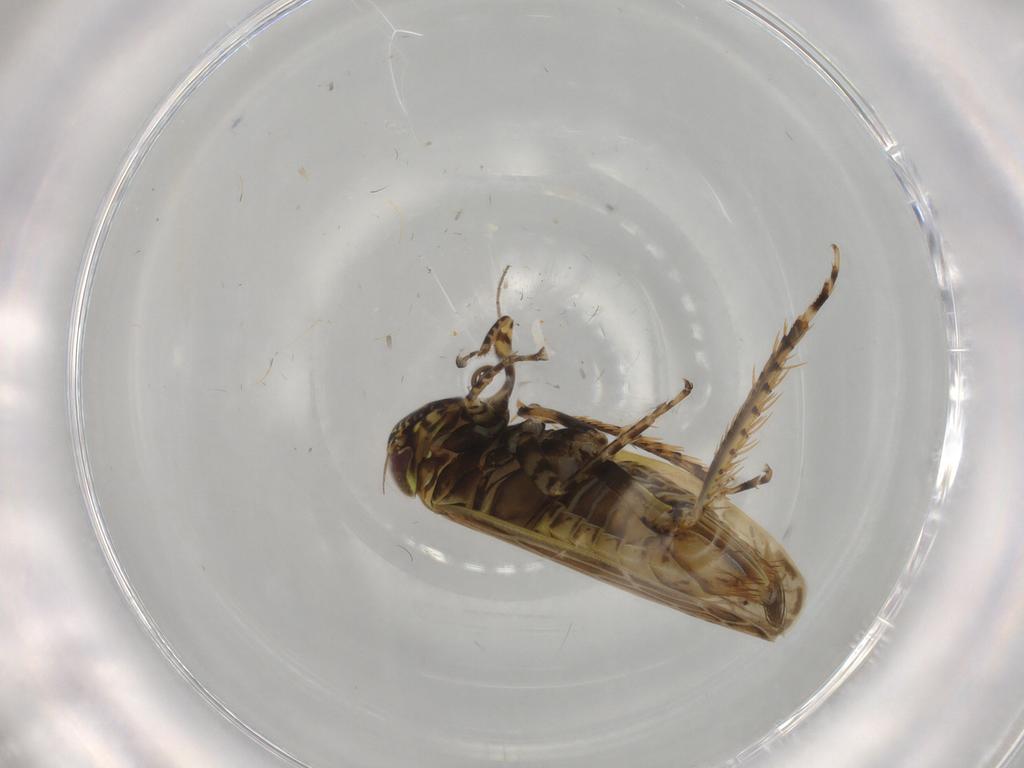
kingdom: Animalia
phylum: Arthropoda
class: Insecta
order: Hemiptera
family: Cicadellidae
